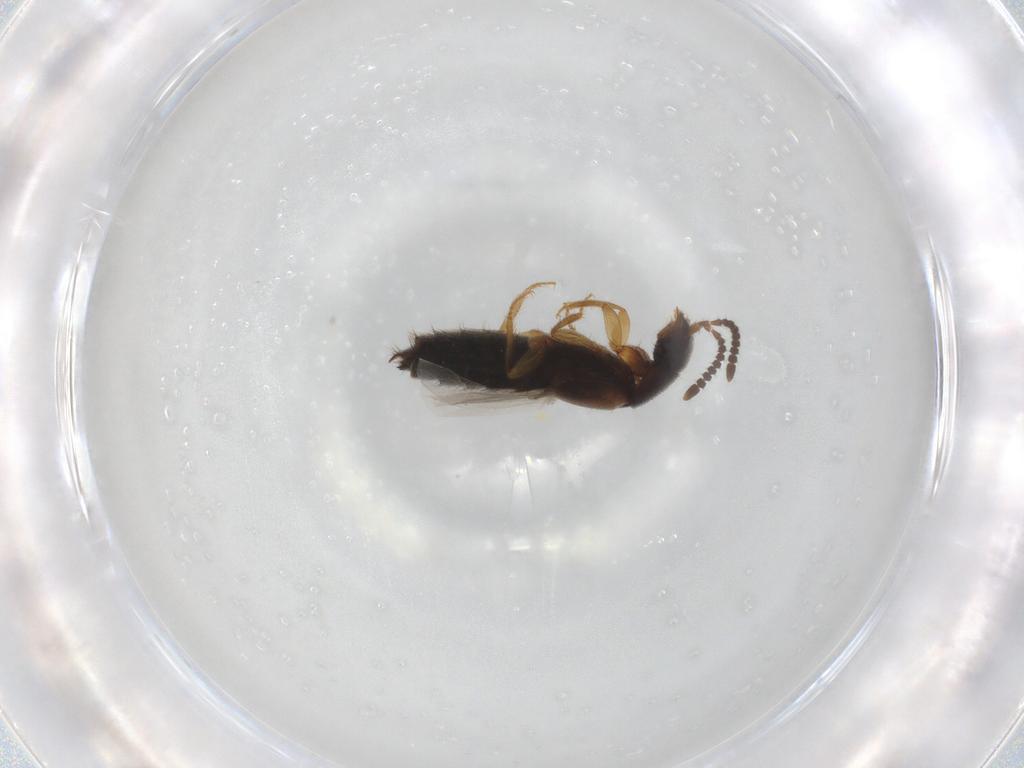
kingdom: Animalia
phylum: Arthropoda
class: Insecta
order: Coleoptera
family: Staphylinidae
